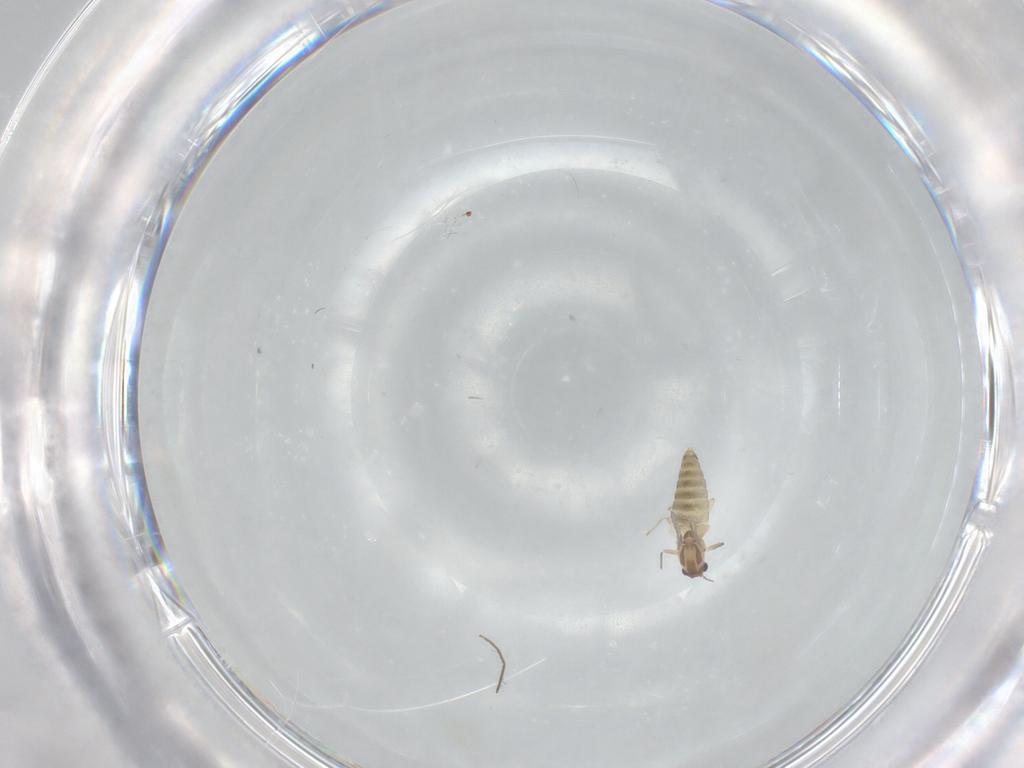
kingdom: Animalia
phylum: Arthropoda
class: Insecta
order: Diptera
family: Chironomidae
